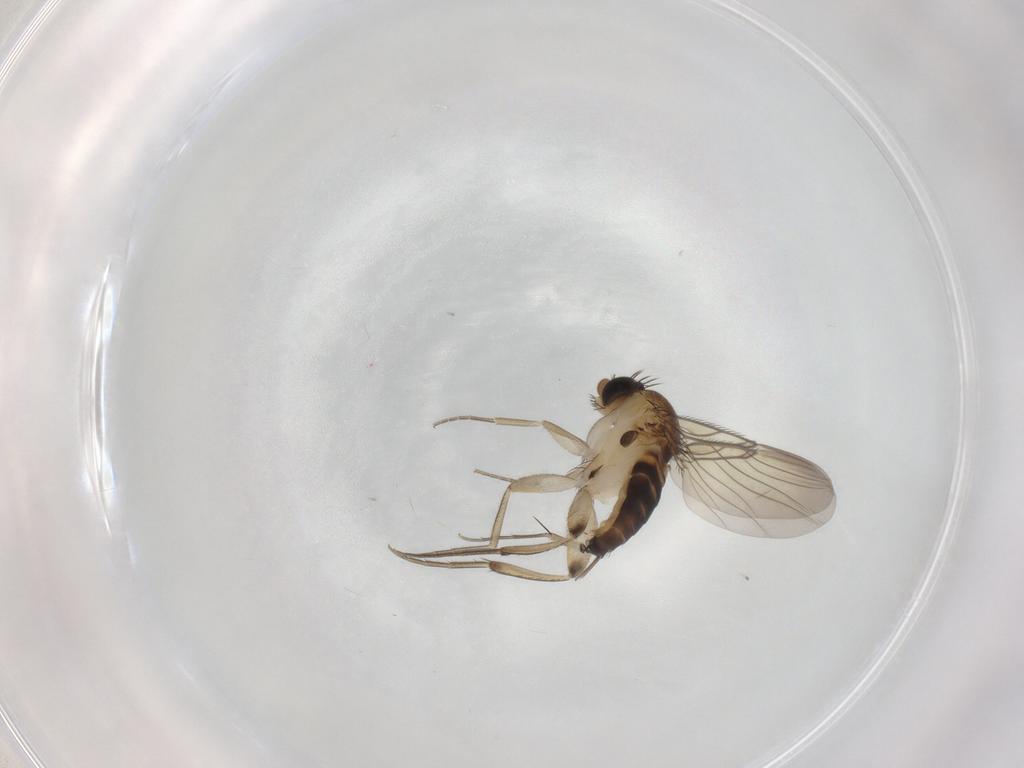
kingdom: Animalia
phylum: Arthropoda
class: Insecta
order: Diptera
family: Phoridae
